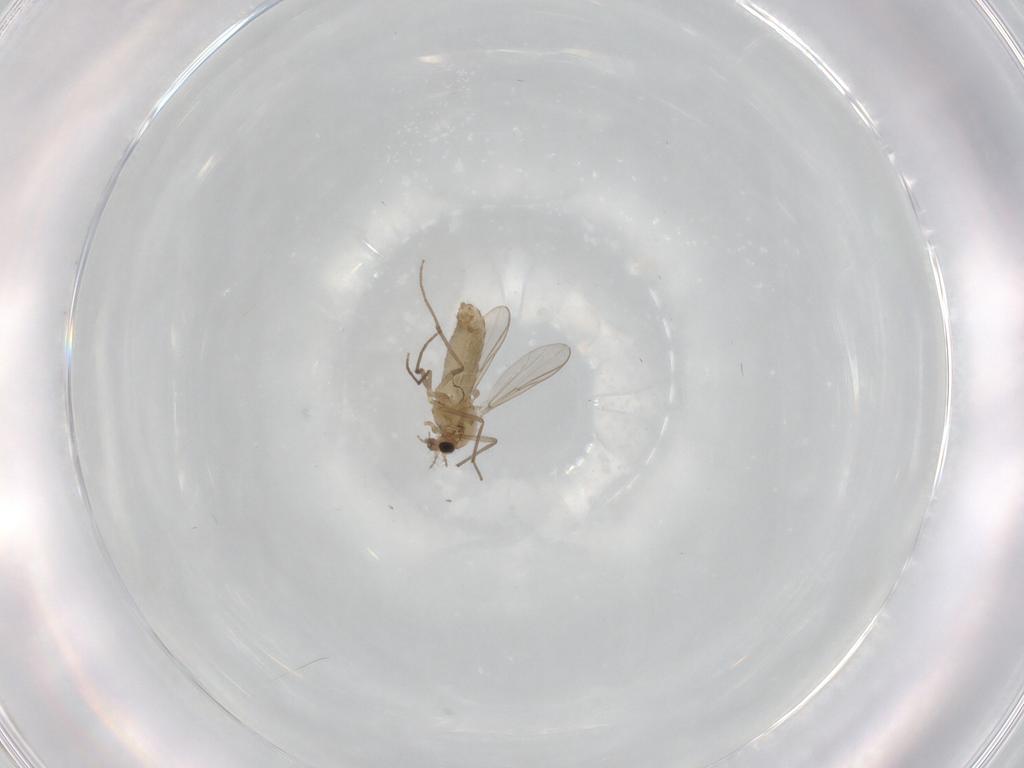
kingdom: Animalia
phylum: Arthropoda
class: Insecta
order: Diptera
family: Chironomidae
